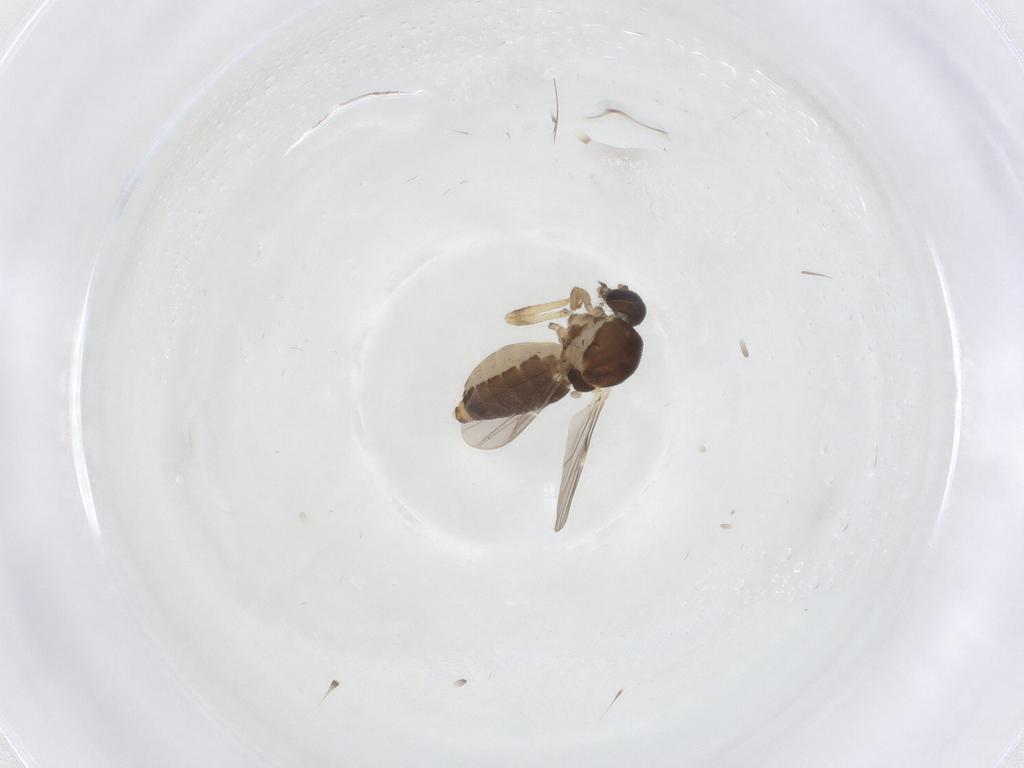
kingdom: Animalia
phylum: Arthropoda
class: Insecta
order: Diptera
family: Ceratopogonidae
